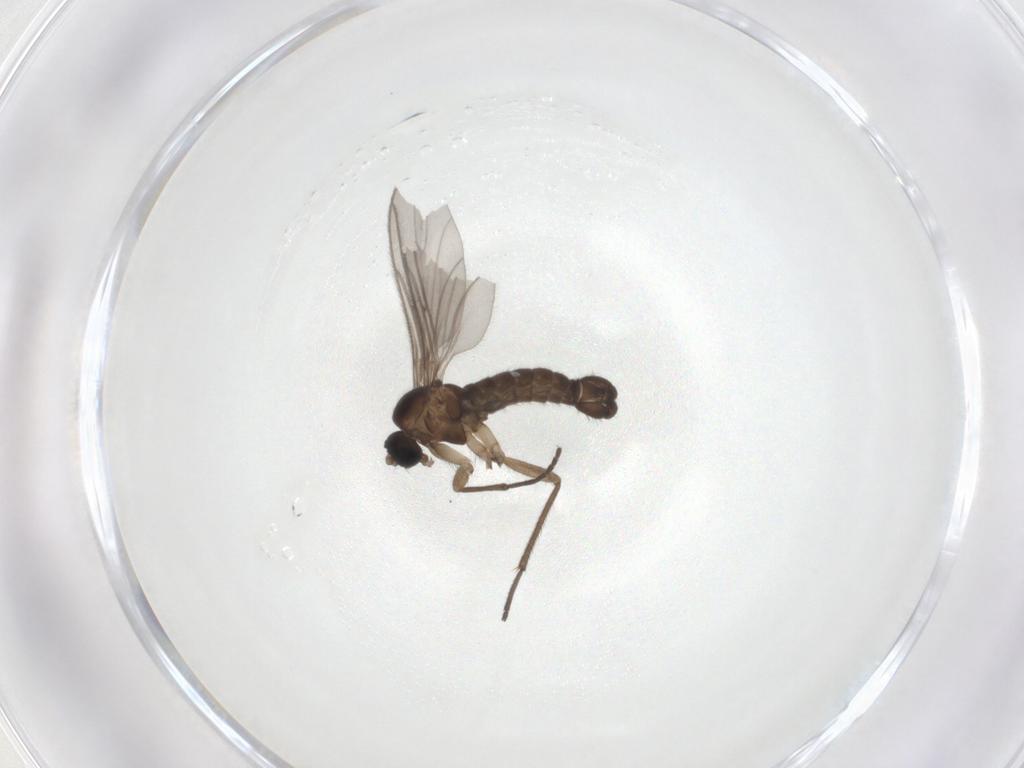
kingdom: Animalia
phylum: Arthropoda
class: Insecta
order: Diptera
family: Sciaridae
